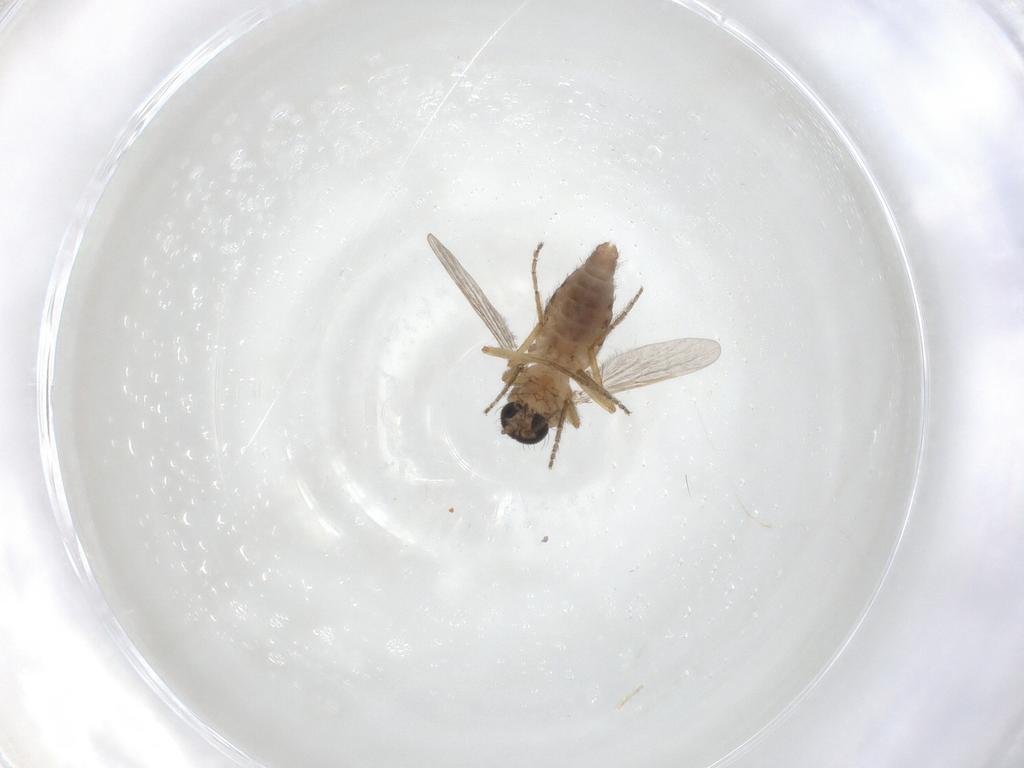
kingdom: Animalia
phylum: Arthropoda
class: Insecta
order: Diptera
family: Ceratopogonidae
